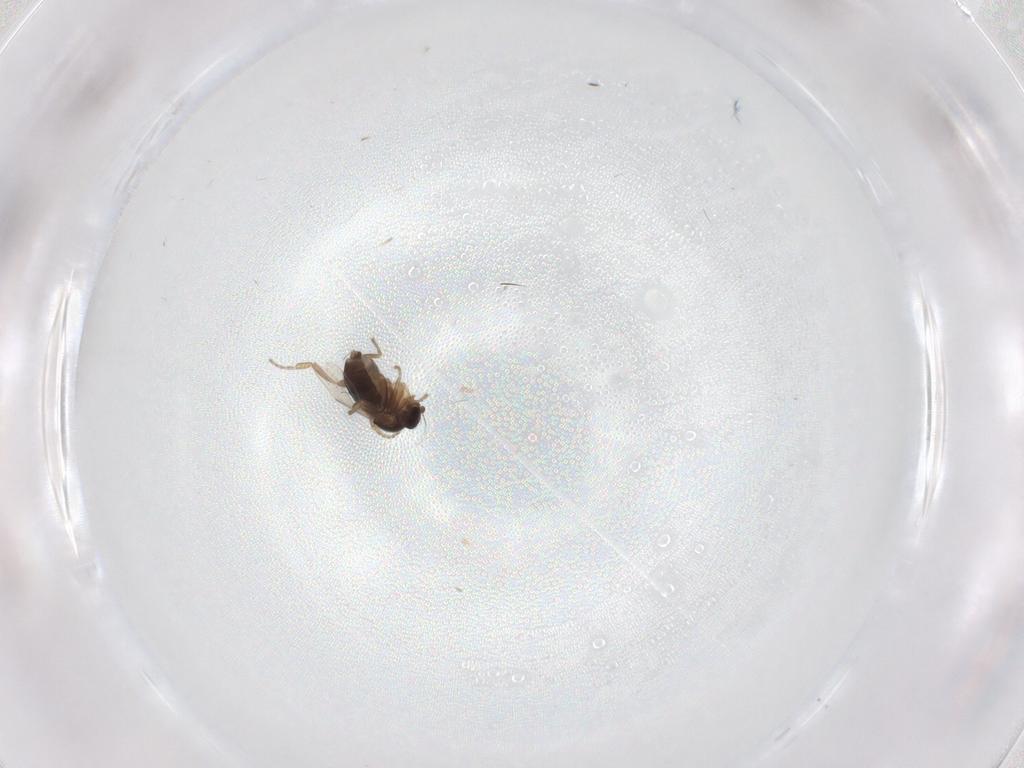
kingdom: Animalia
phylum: Arthropoda
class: Insecta
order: Diptera
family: Phoridae
